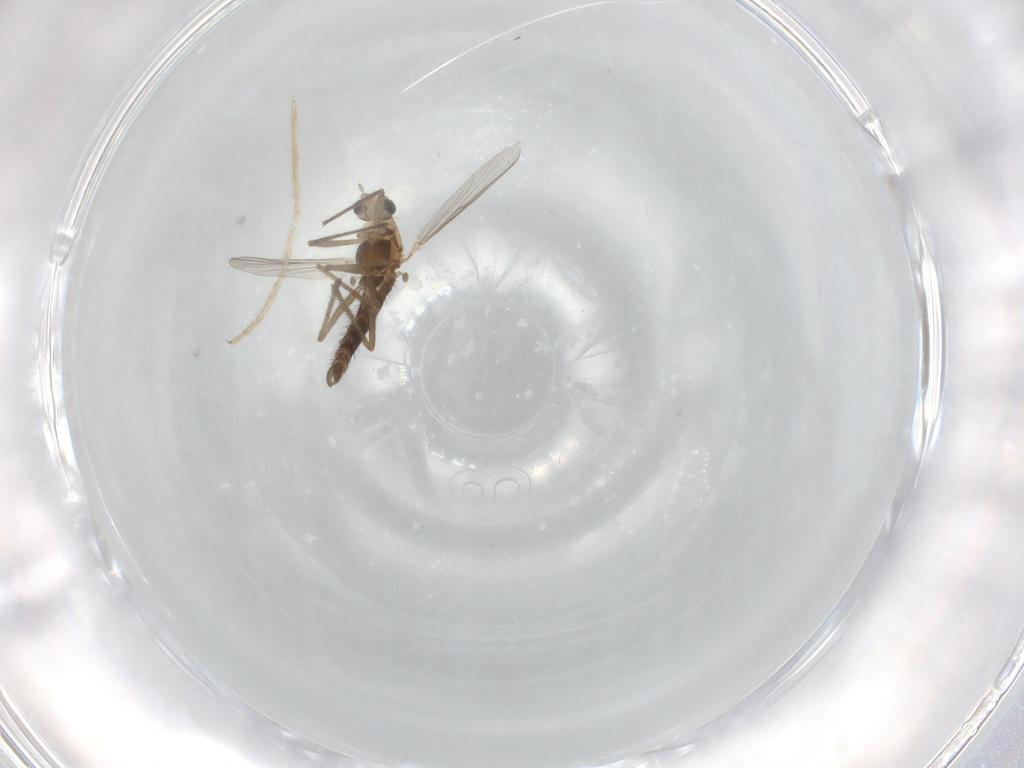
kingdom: Animalia
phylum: Arthropoda
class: Insecta
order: Diptera
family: Chironomidae
